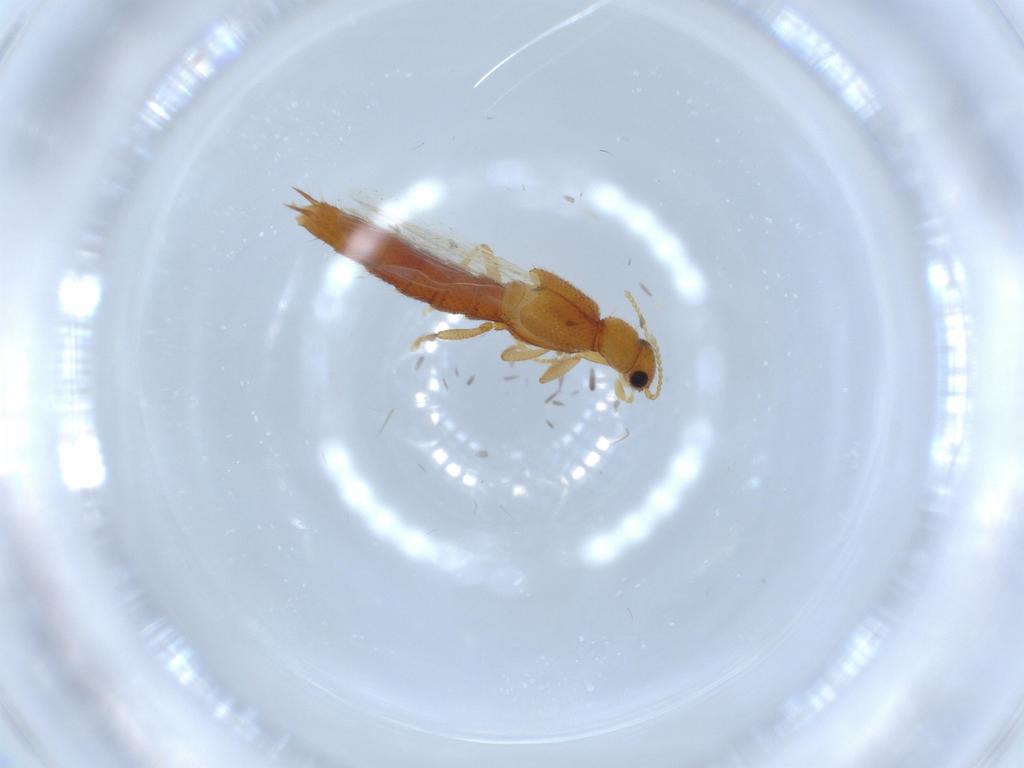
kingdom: Animalia
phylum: Arthropoda
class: Insecta
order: Coleoptera
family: Staphylinidae
